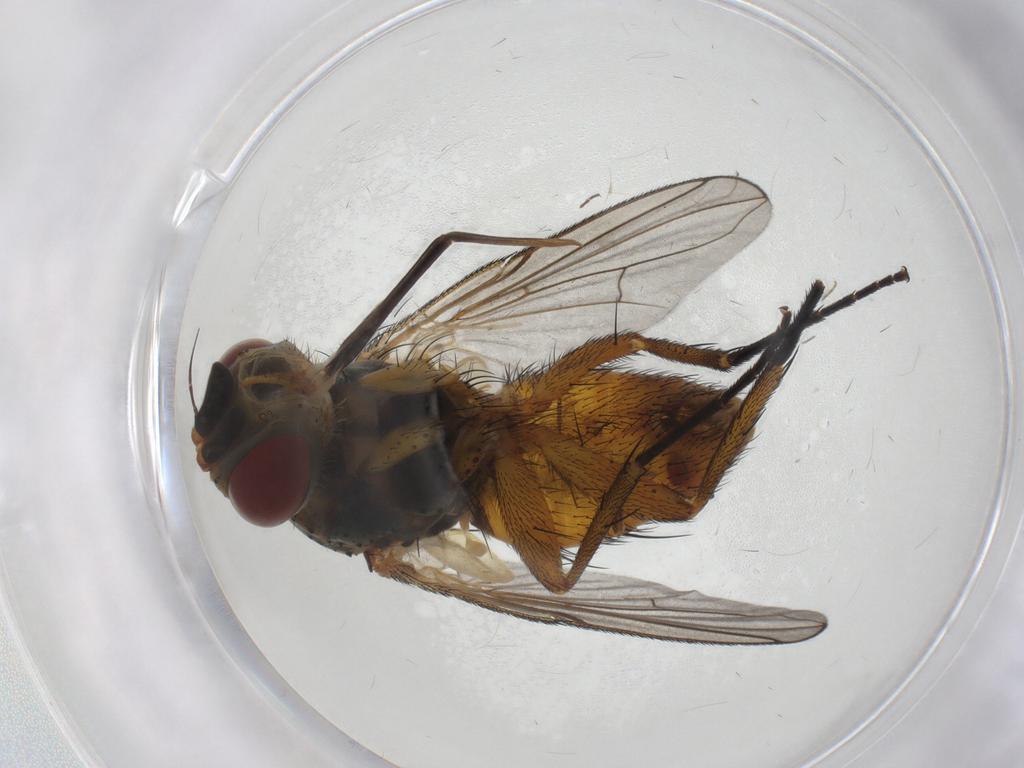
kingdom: Animalia
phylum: Arthropoda
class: Insecta
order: Diptera
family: Tachinidae
